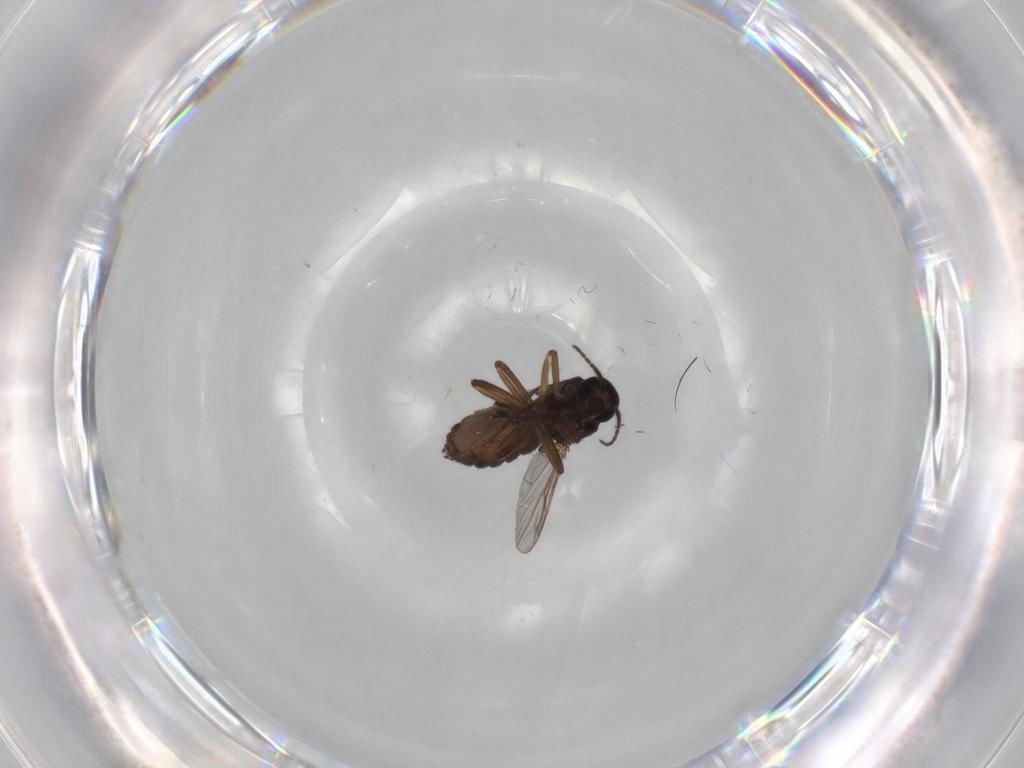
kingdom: Animalia
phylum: Arthropoda
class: Insecta
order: Diptera
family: Ceratopogonidae
